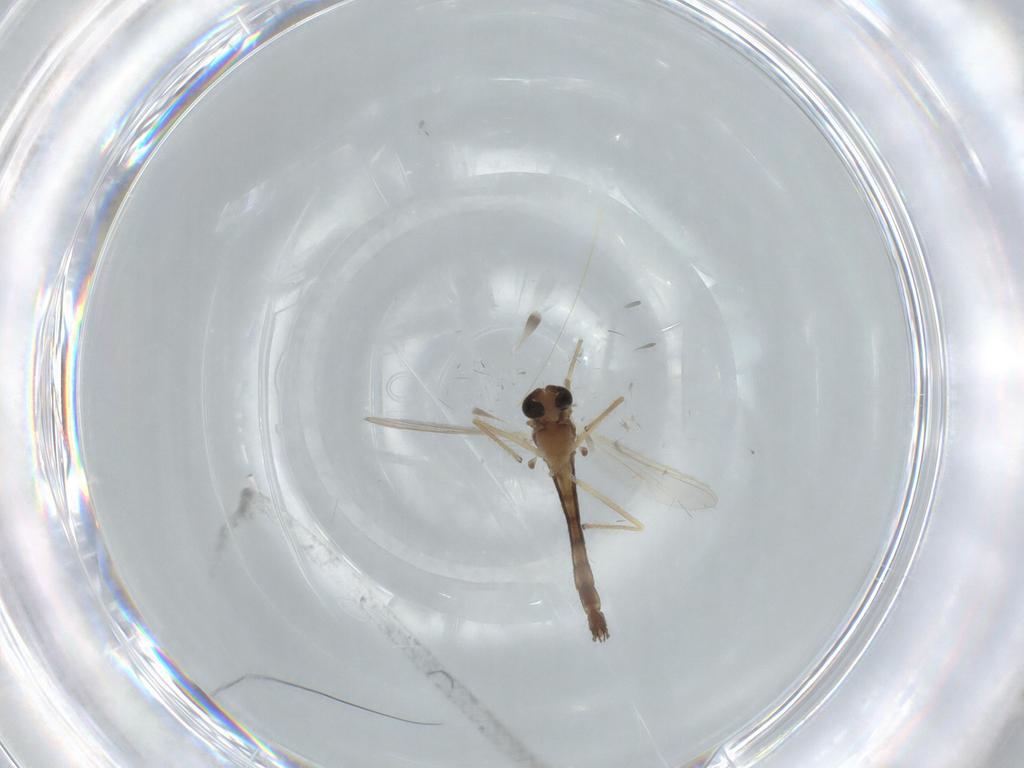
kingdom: Animalia
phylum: Arthropoda
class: Insecta
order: Diptera
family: Chironomidae
